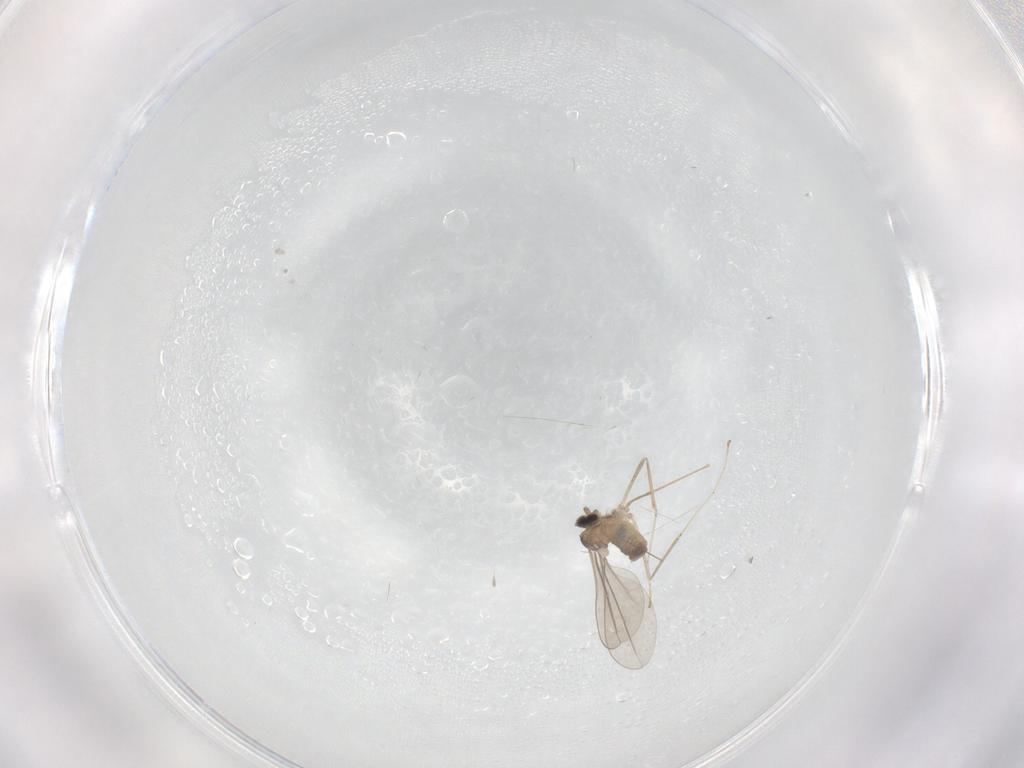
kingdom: Animalia
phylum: Arthropoda
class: Insecta
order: Diptera
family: Cecidomyiidae
